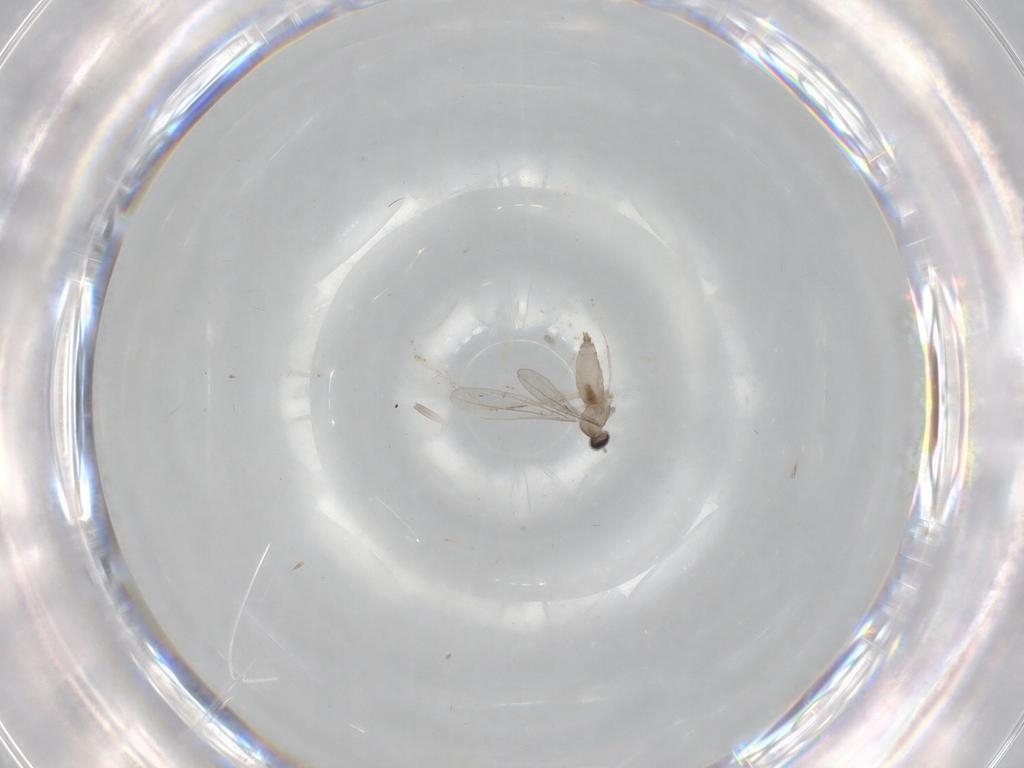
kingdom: Animalia
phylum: Arthropoda
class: Insecta
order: Diptera
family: Cecidomyiidae
